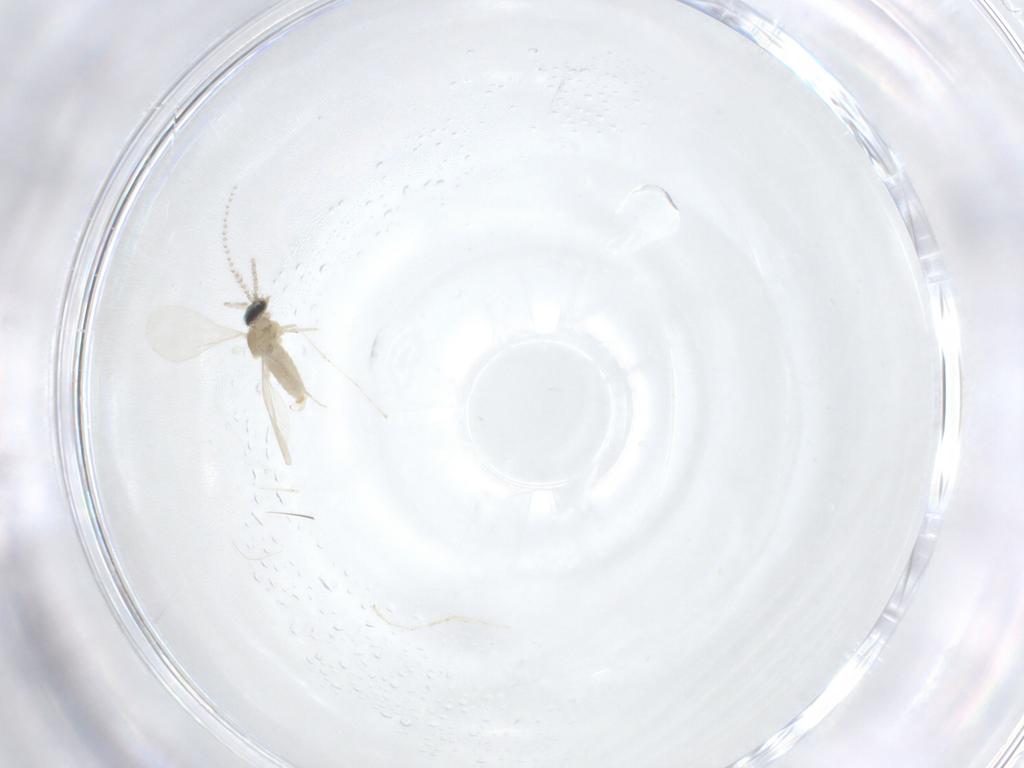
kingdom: Animalia
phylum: Arthropoda
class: Insecta
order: Diptera
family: Cecidomyiidae
